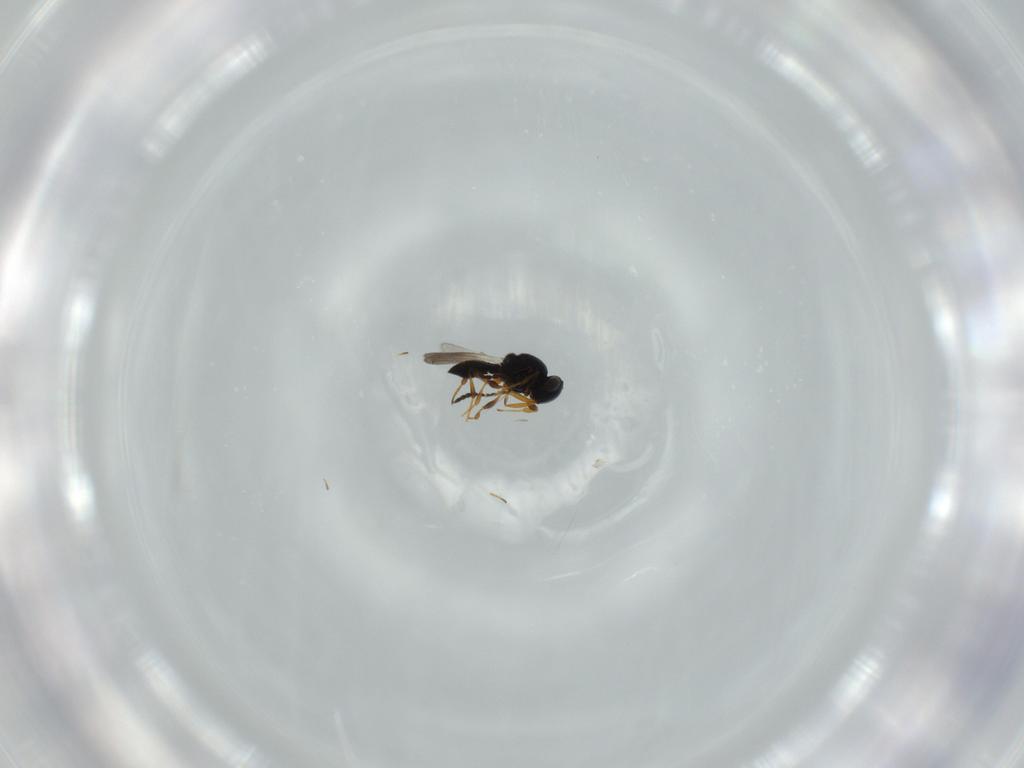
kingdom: Animalia
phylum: Arthropoda
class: Insecta
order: Hymenoptera
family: Platygastridae
